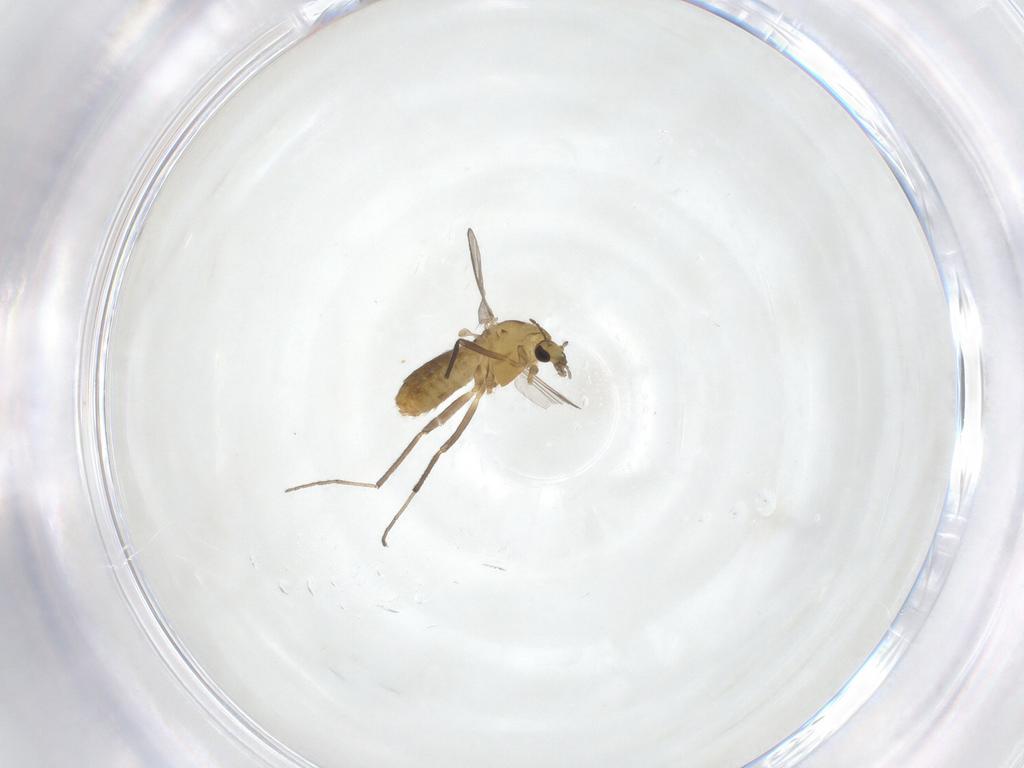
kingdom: Animalia
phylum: Arthropoda
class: Insecta
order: Diptera
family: Chironomidae
